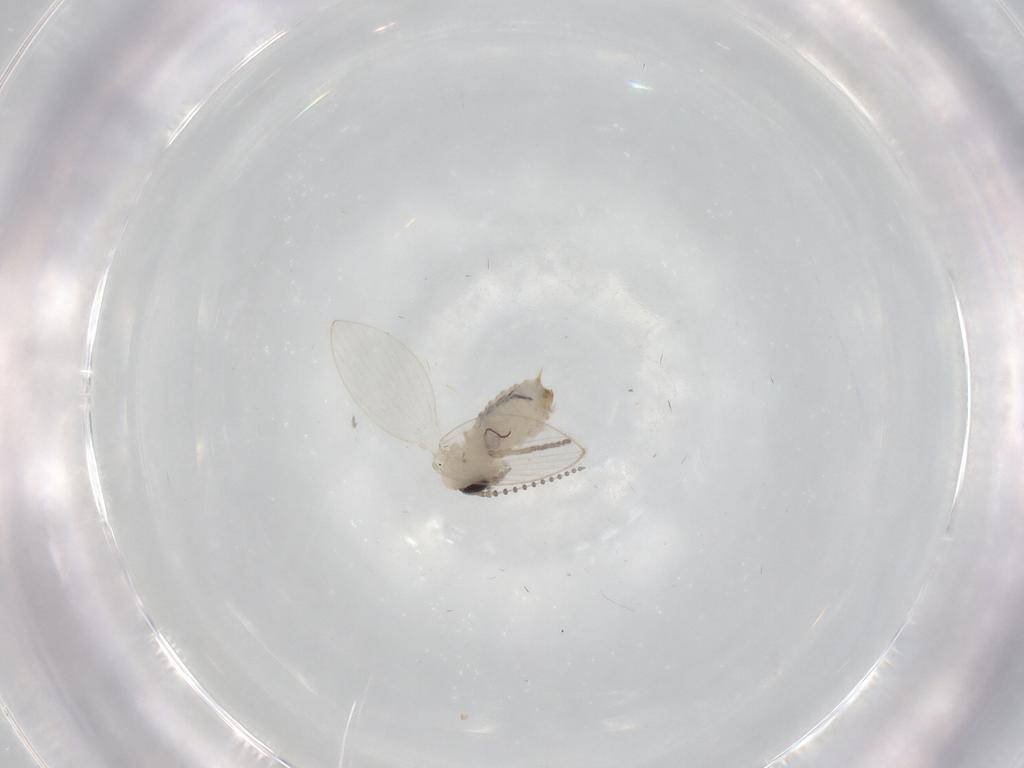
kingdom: Animalia
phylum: Arthropoda
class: Insecta
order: Diptera
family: Psychodidae
